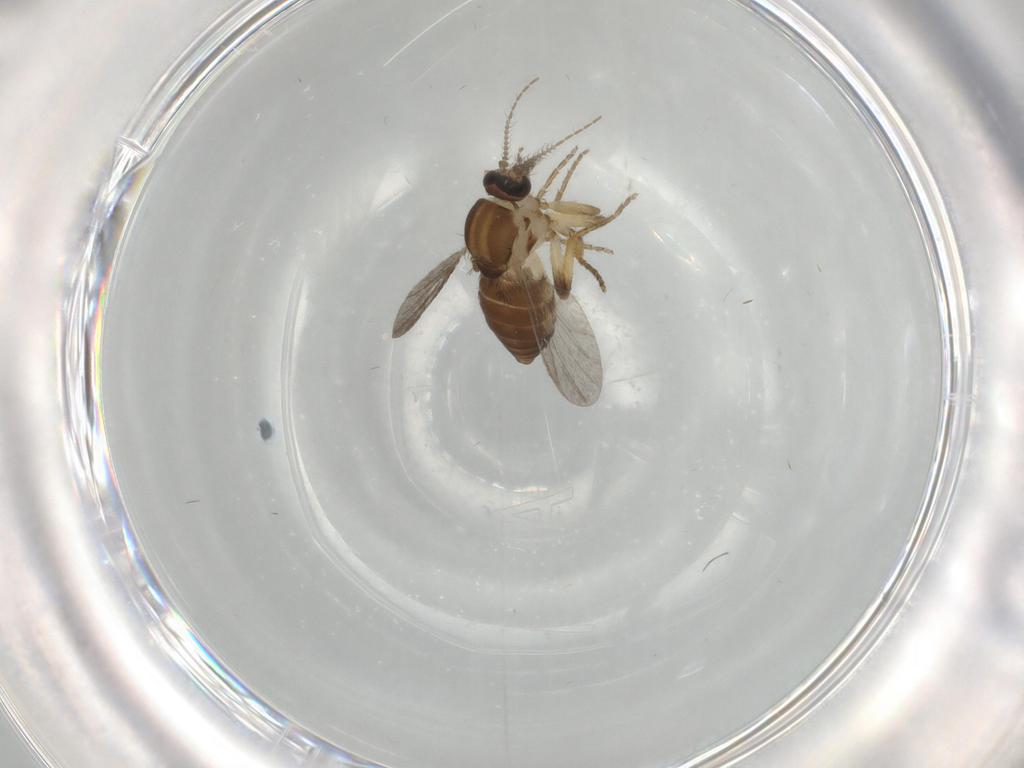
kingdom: Animalia
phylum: Arthropoda
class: Insecta
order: Diptera
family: Ceratopogonidae
